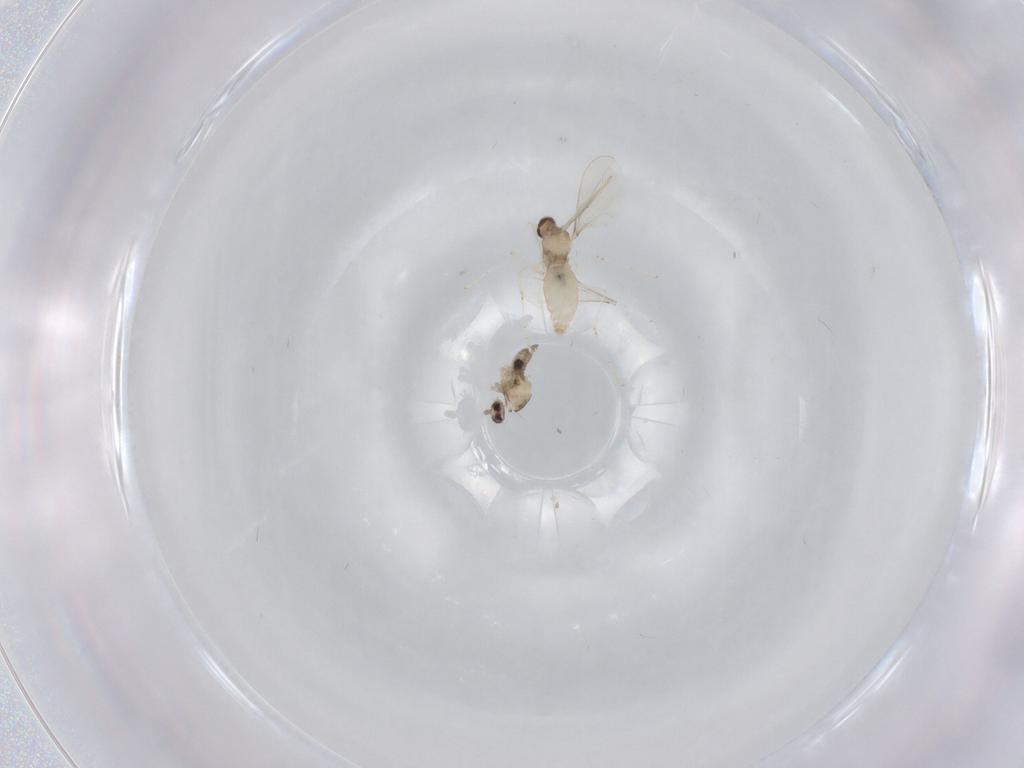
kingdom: Animalia
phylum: Arthropoda
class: Insecta
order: Diptera
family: Cecidomyiidae
